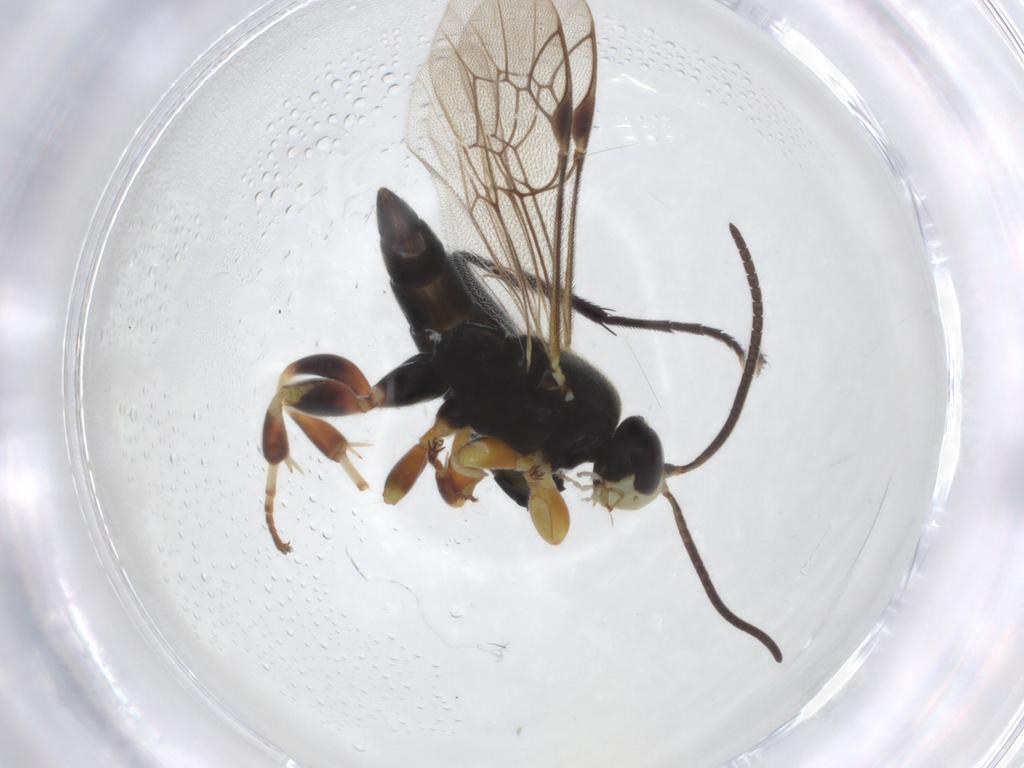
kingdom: Animalia
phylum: Arthropoda
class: Insecta
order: Hymenoptera
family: Ichneumonidae
